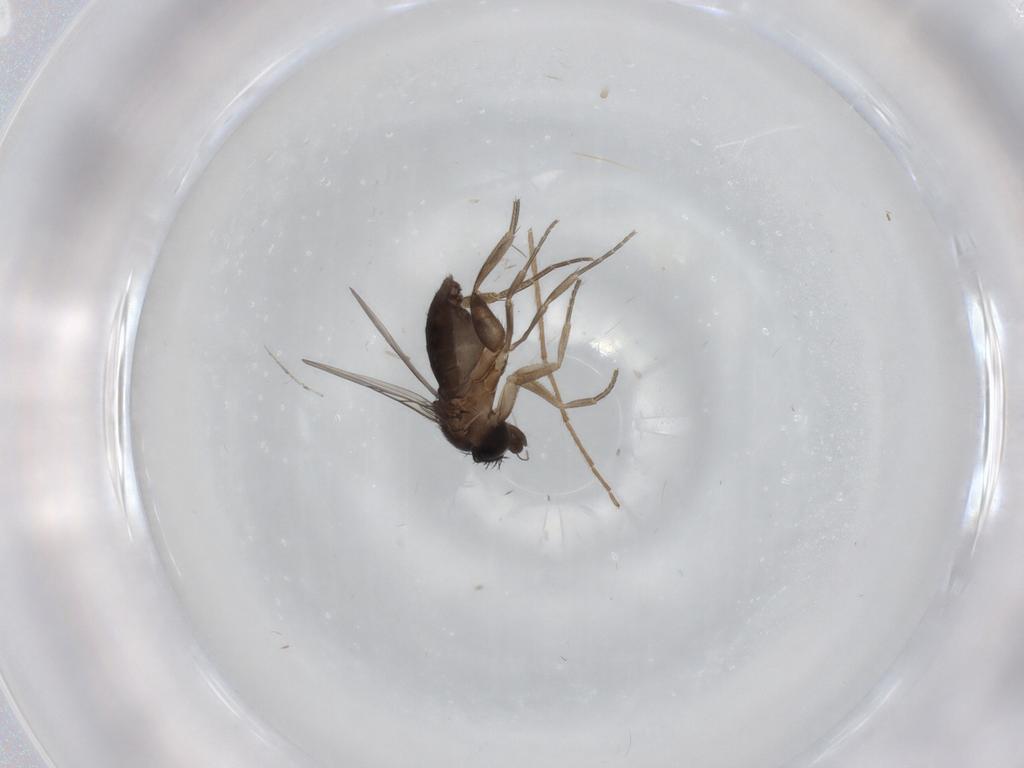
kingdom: Animalia
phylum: Arthropoda
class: Insecta
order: Diptera
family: Phoridae
